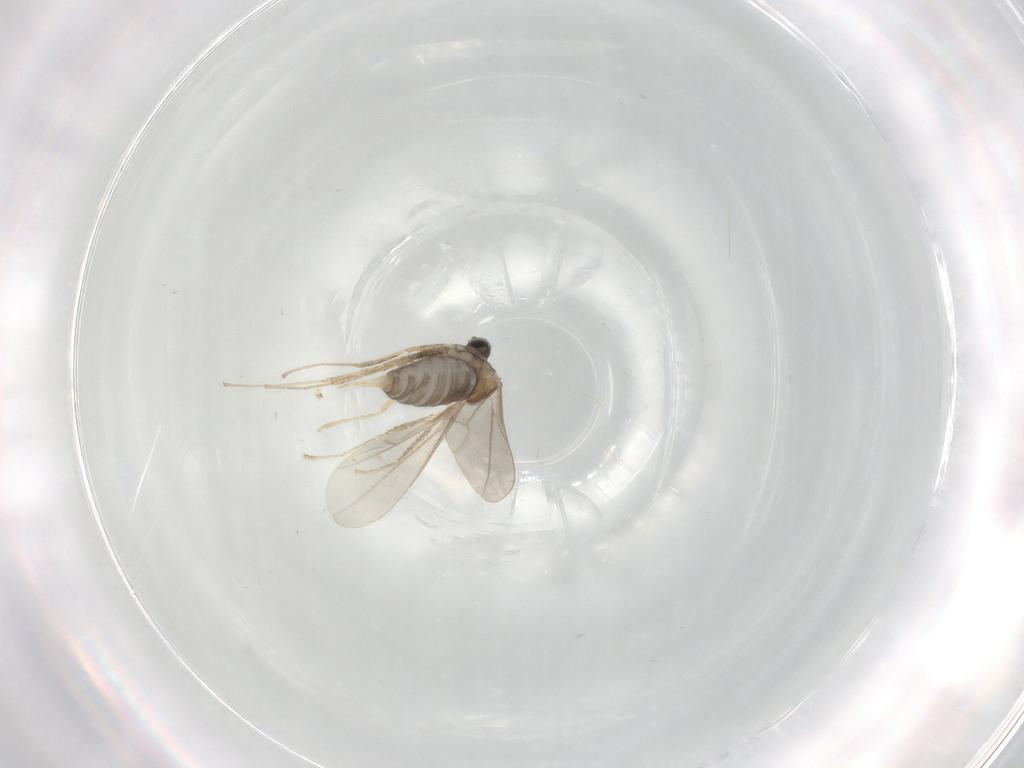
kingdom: Animalia
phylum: Arthropoda
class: Insecta
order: Diptera
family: Cecidomyiidae
